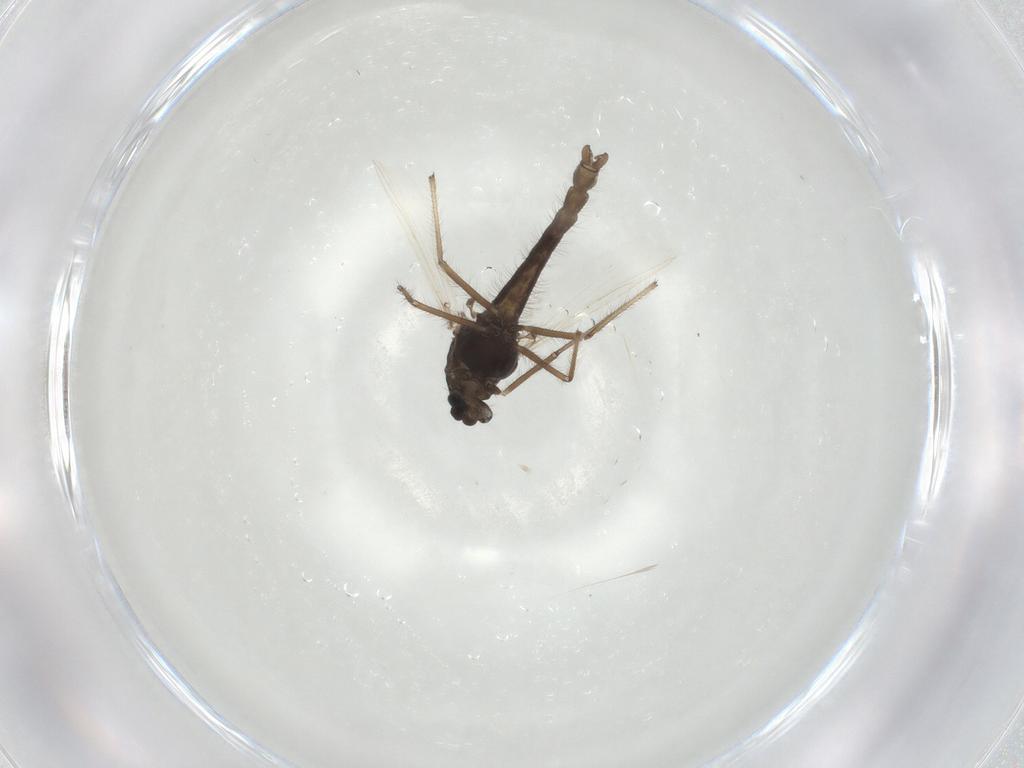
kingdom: Animalia
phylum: Arthropoda
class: Insecta
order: Diptera
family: Chironomidae
